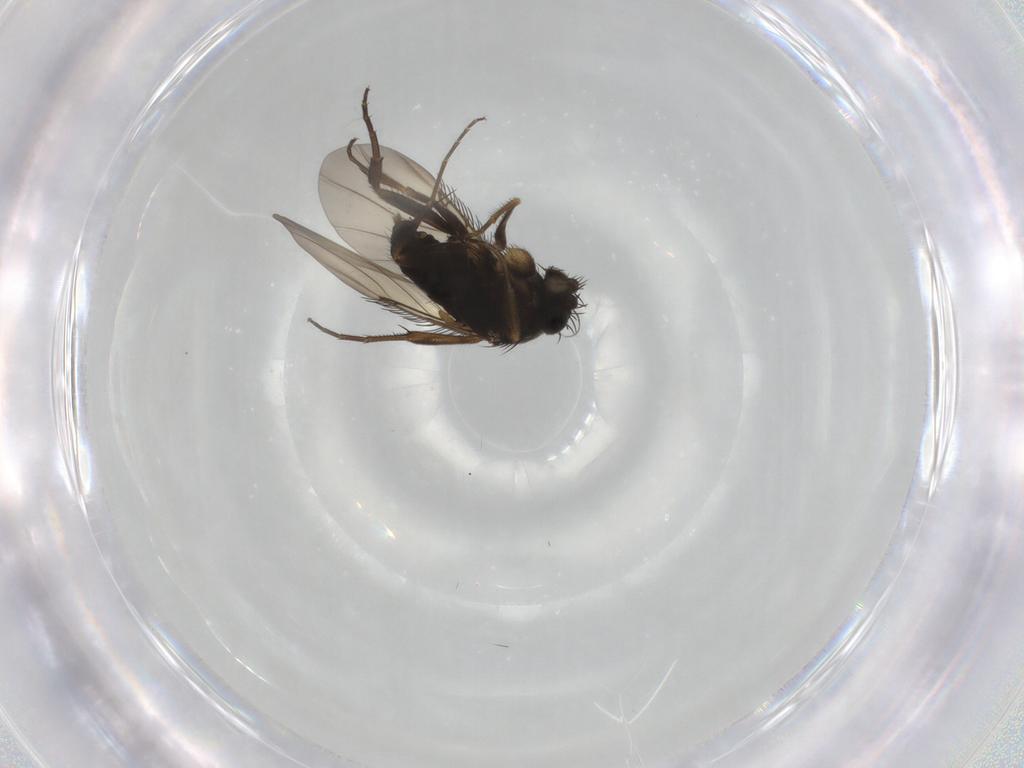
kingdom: Animalia
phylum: Arthropoda
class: Insecta
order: Diptera
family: Phoridae
